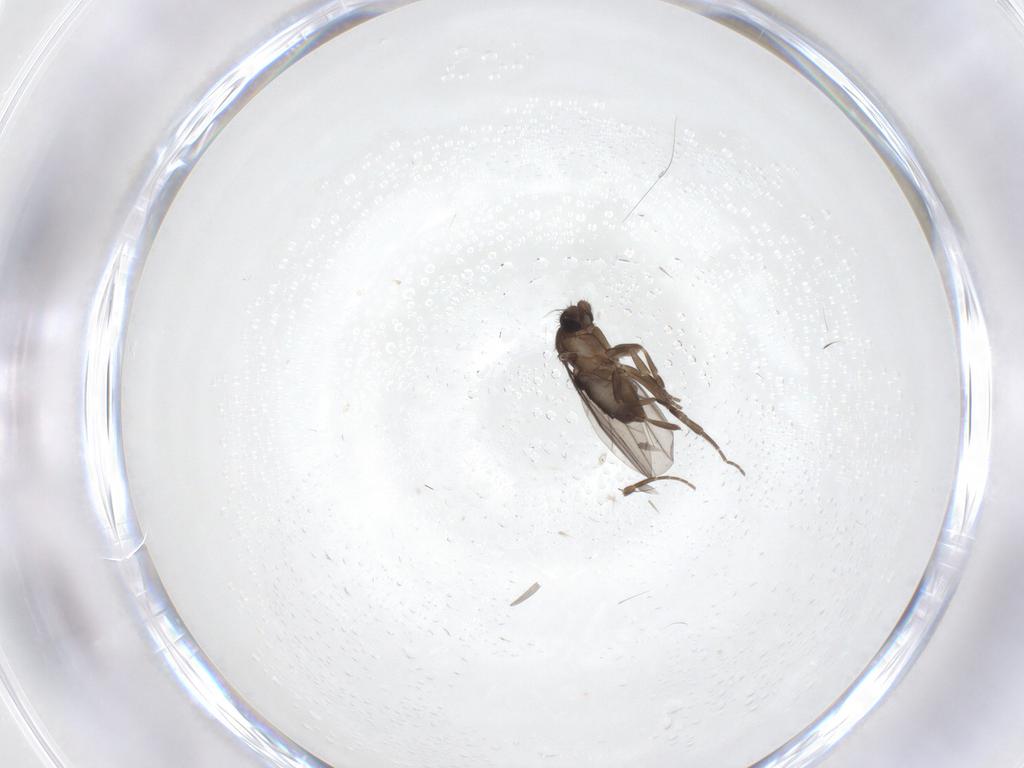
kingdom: Animalia
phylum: Arthropoda
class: Insecta
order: Diptera
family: Phoridae
